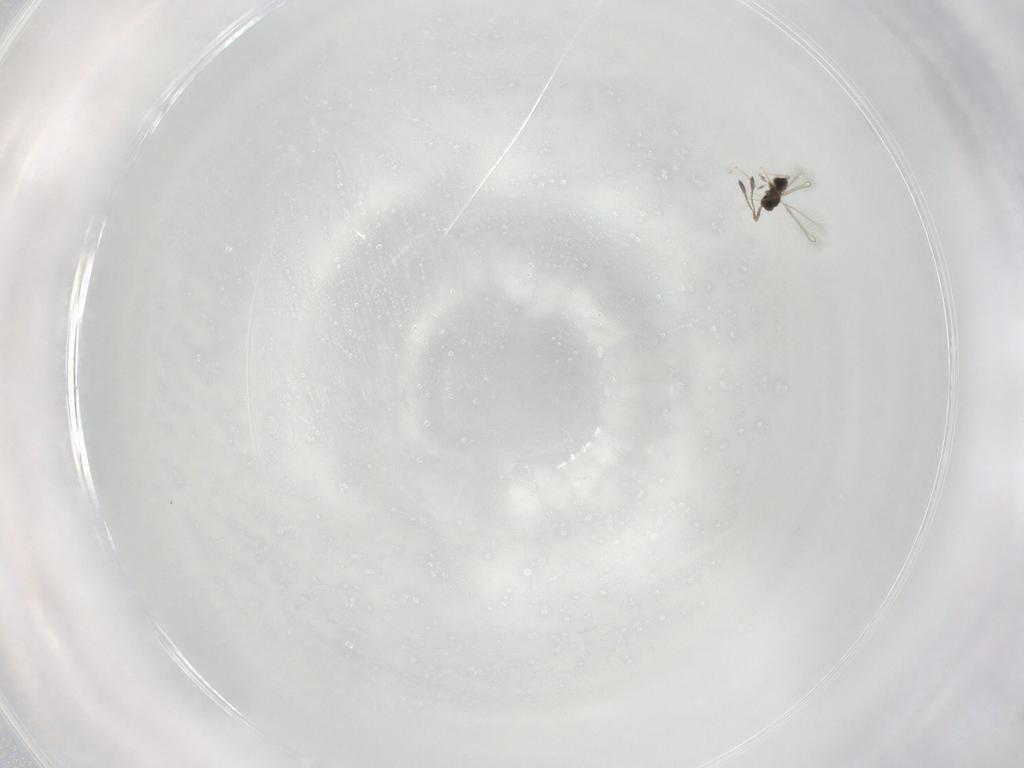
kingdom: Animalia
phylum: Arthropoda
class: Insecta
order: Hymenoptera
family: Mymaridae
